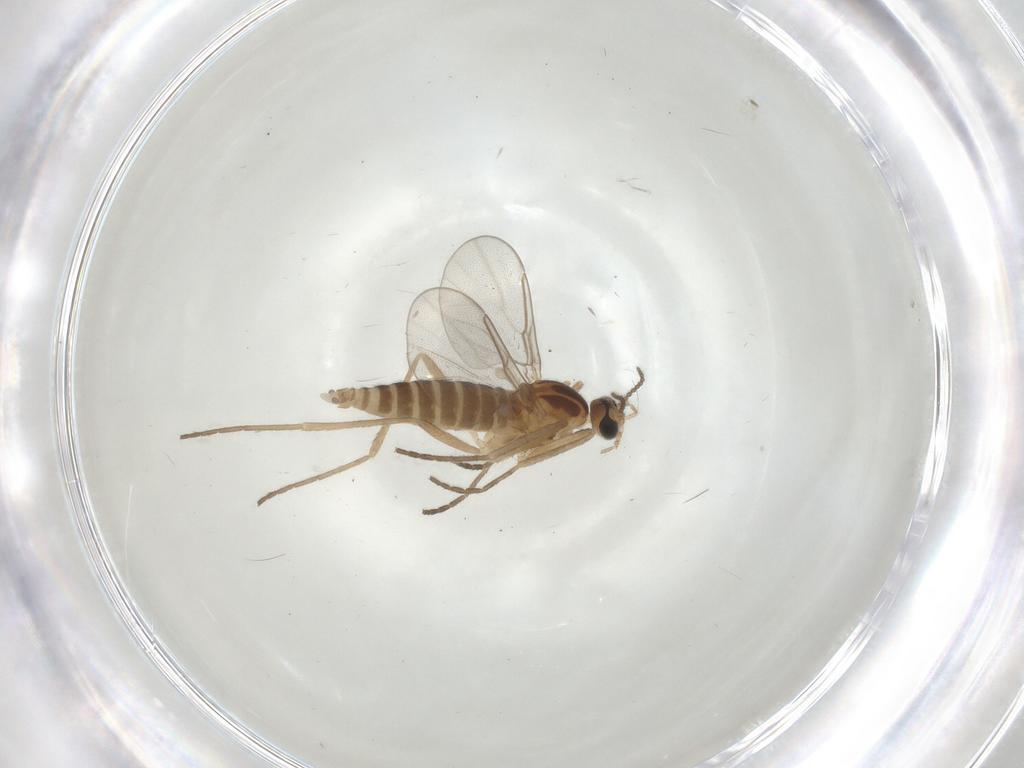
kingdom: Animalia
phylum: Arthropoda
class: Insecta
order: Diptera
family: Cecidomyiidae
